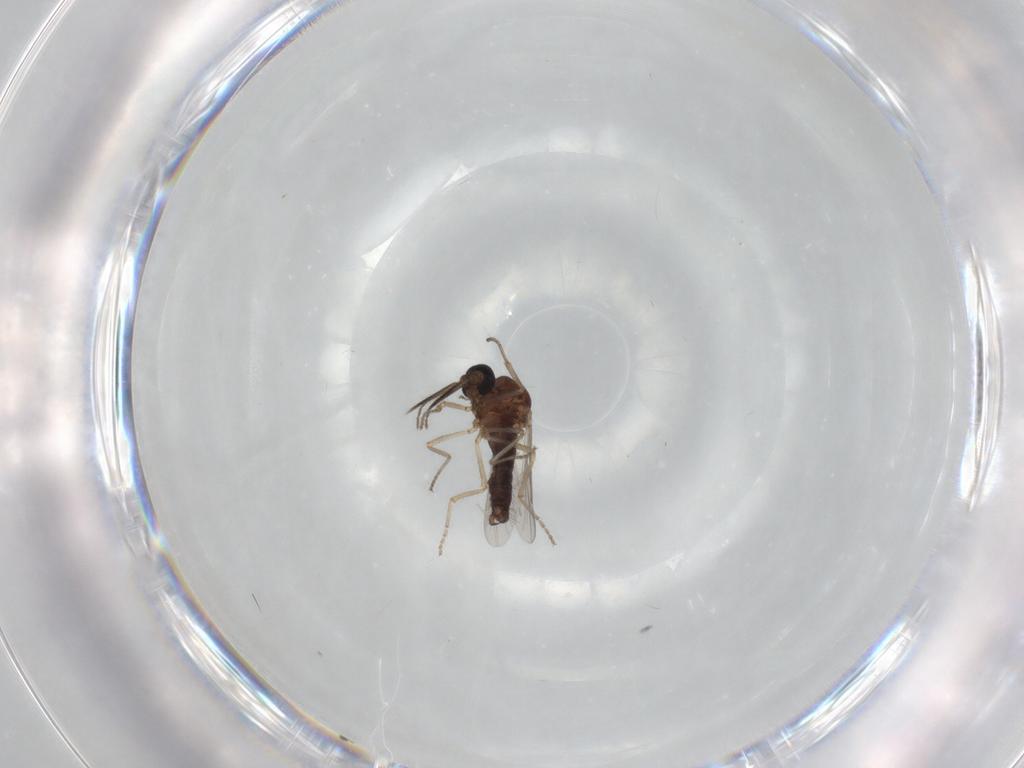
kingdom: Animalia
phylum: Arthropoda
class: Insecta
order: Diptera
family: Ceratopogonidae
